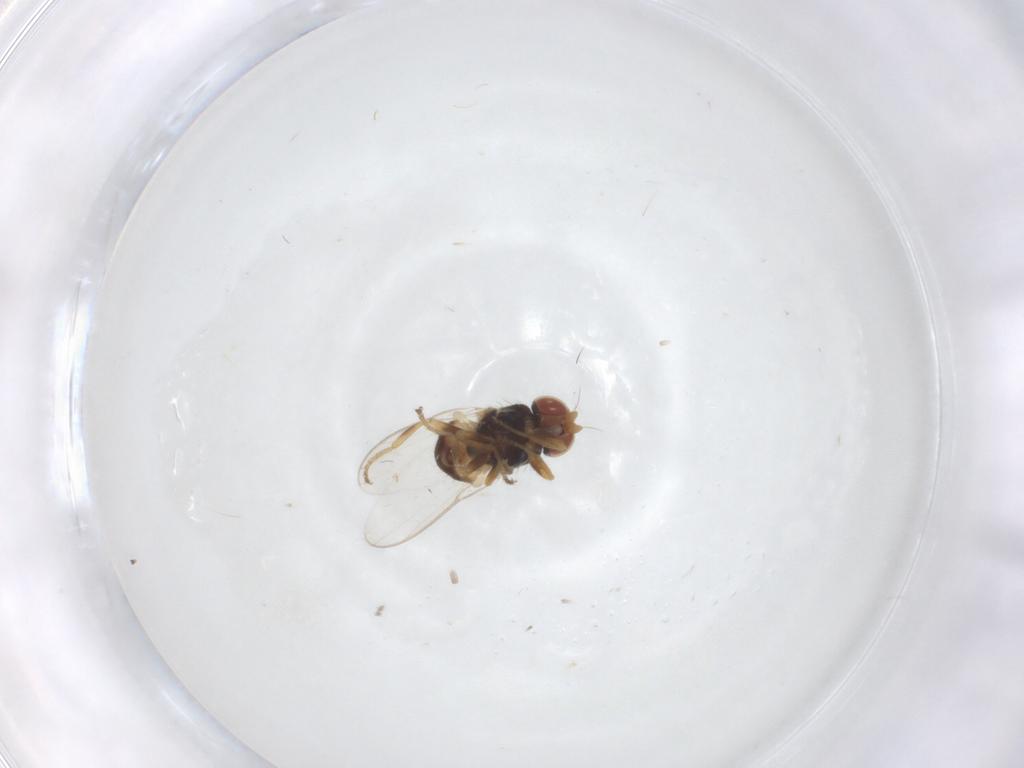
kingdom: Animalia
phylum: Arthropoda
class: Insecta
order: Diptera
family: Chloropidae
